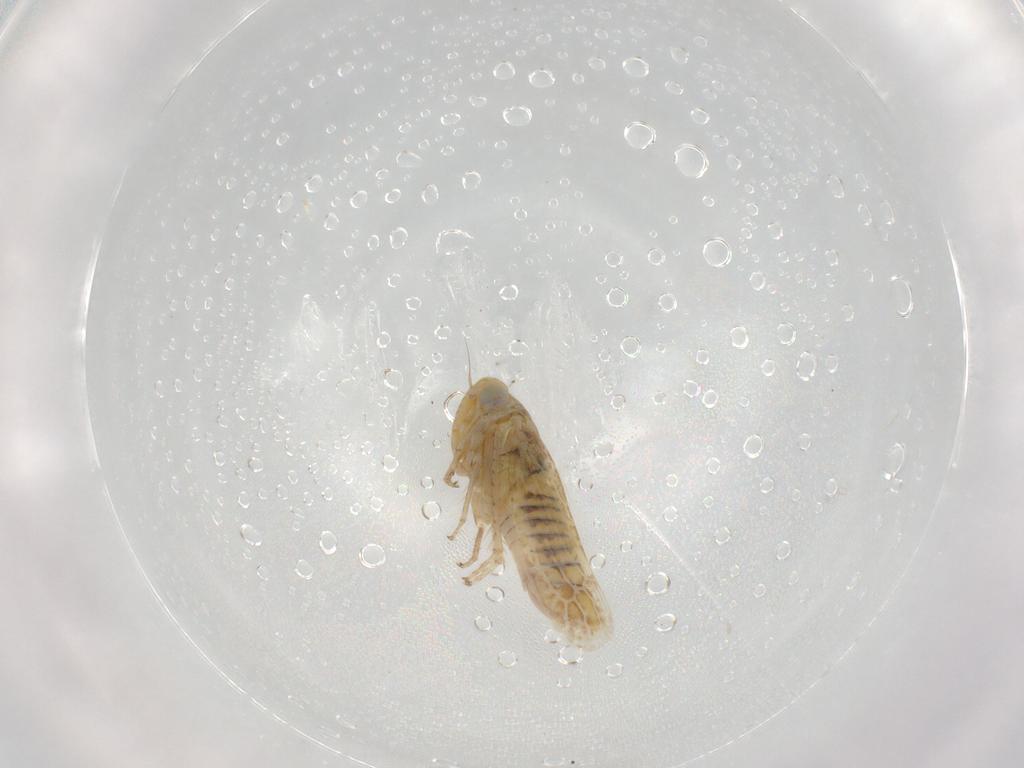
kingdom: Animalia
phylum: Arthropoda
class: Insecta
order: Hemiptera
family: Cicadellidae
